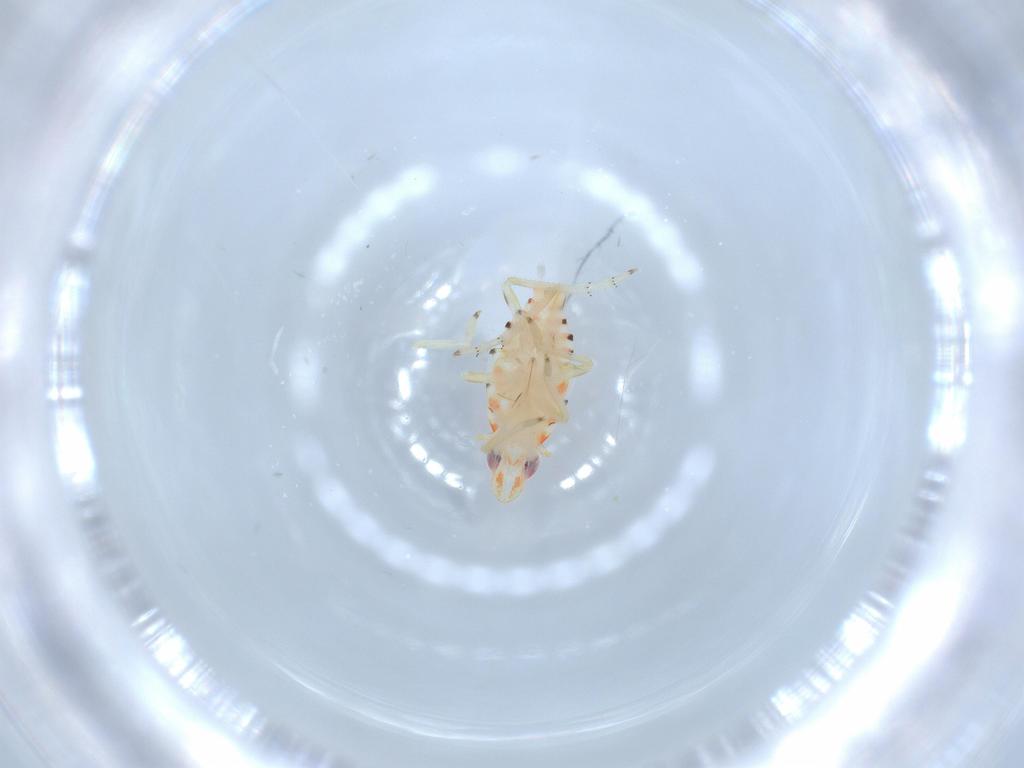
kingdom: Animalia
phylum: Arthropoda
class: Insecta
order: Hemiptera
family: Tropiduchidae
